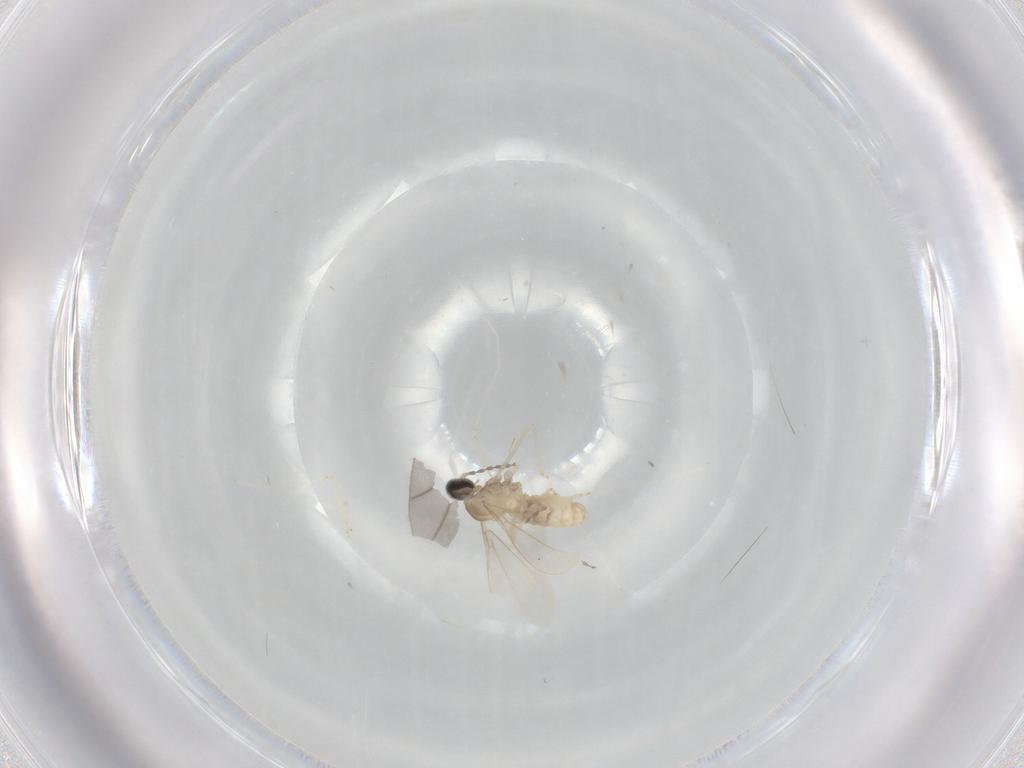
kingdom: Animalia
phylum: Arthropoda
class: Insecta
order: Diptera
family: Cecidomyiidae
